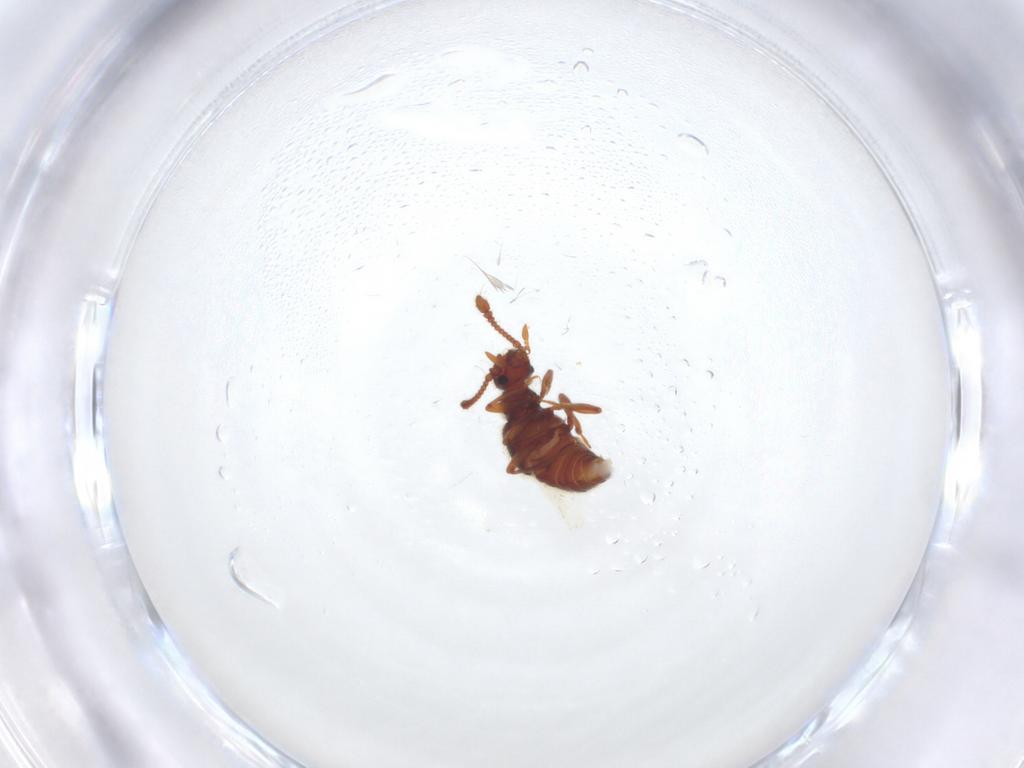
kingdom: Animalia
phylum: Arthropoda
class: Insecta
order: Coleoptera
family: Staphylinidae
